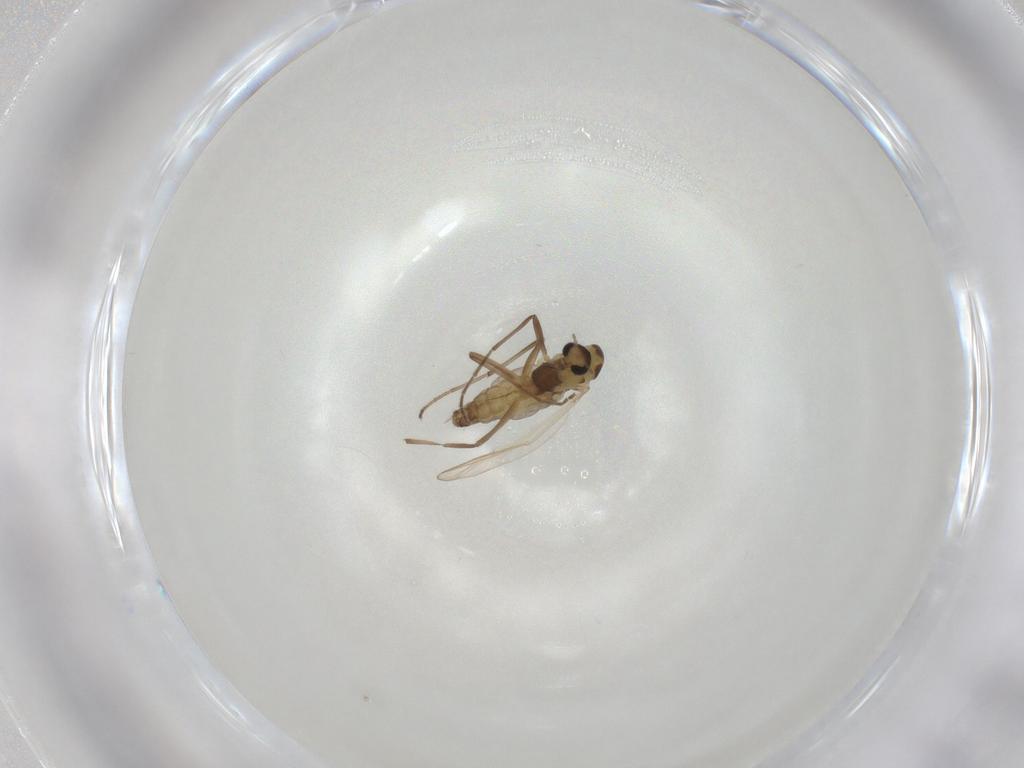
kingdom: Animalia
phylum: Arthropoda
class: Insecta
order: Diptera
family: Chironomidae
